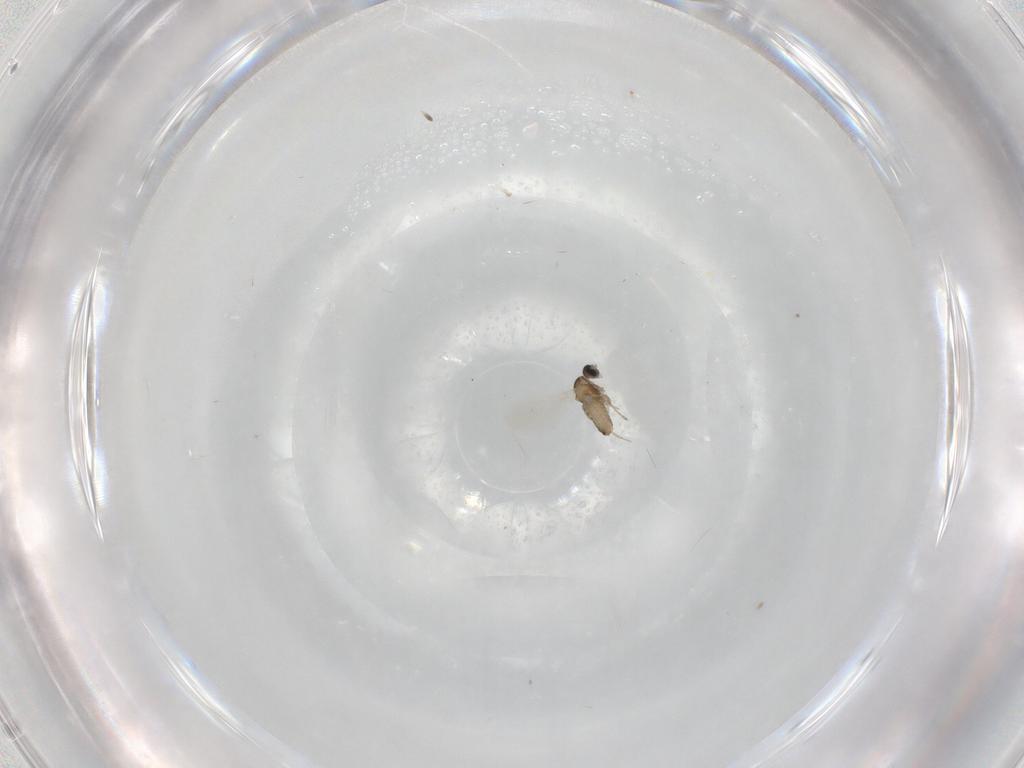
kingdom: Animalia
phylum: Arthropoda
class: Insecta
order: Diptera
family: Cecidomyiidae
